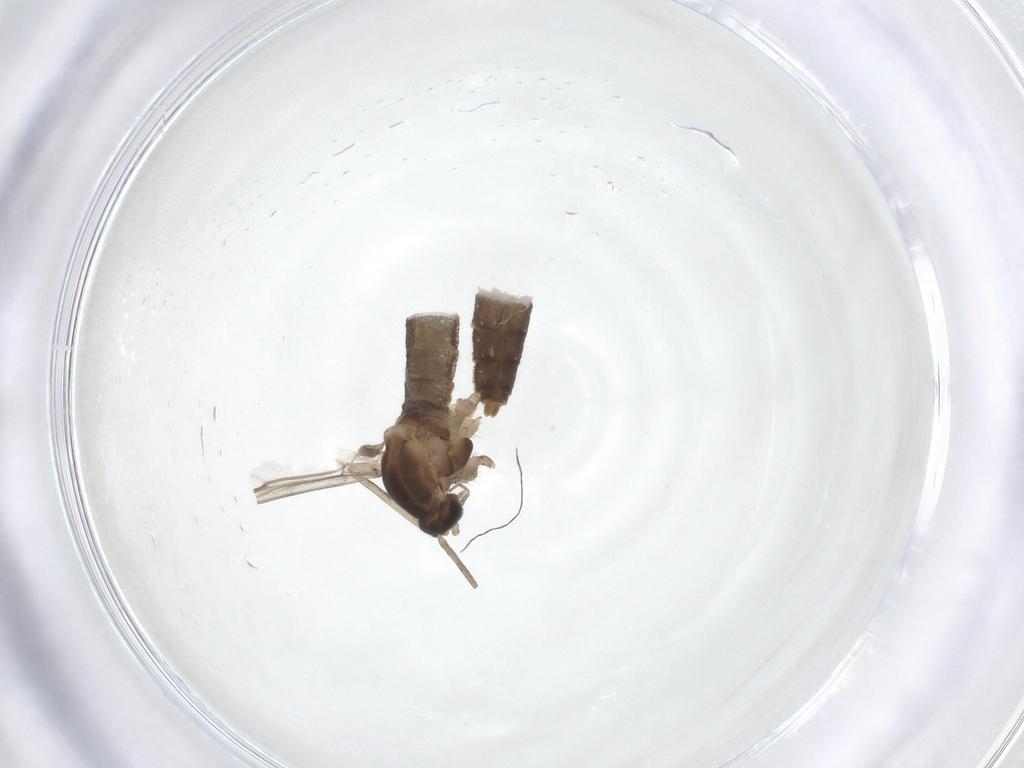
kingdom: Animalia
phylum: Arthropoda
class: Insecta
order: Diptera
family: Cecidomyiidae
